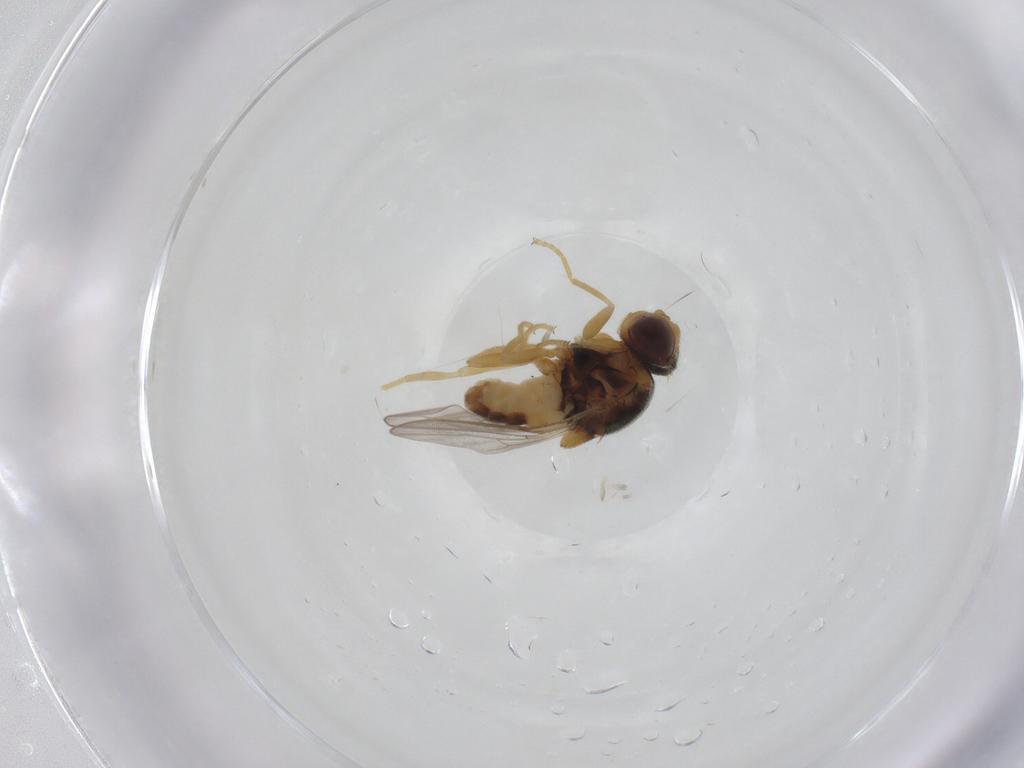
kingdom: Animalia
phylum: Arthropoda
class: Insecta
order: Diptera
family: Chloropidae
